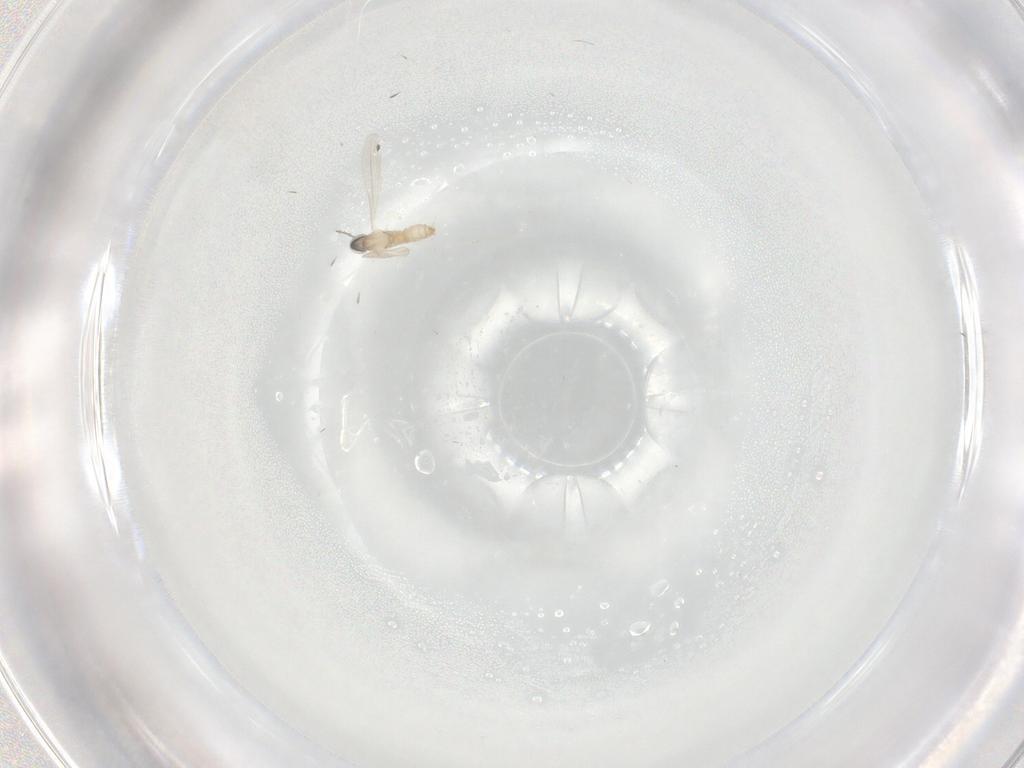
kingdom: Animalia
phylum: Arthropoda
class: Insecta
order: Diptera
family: Cecidomyiidae
